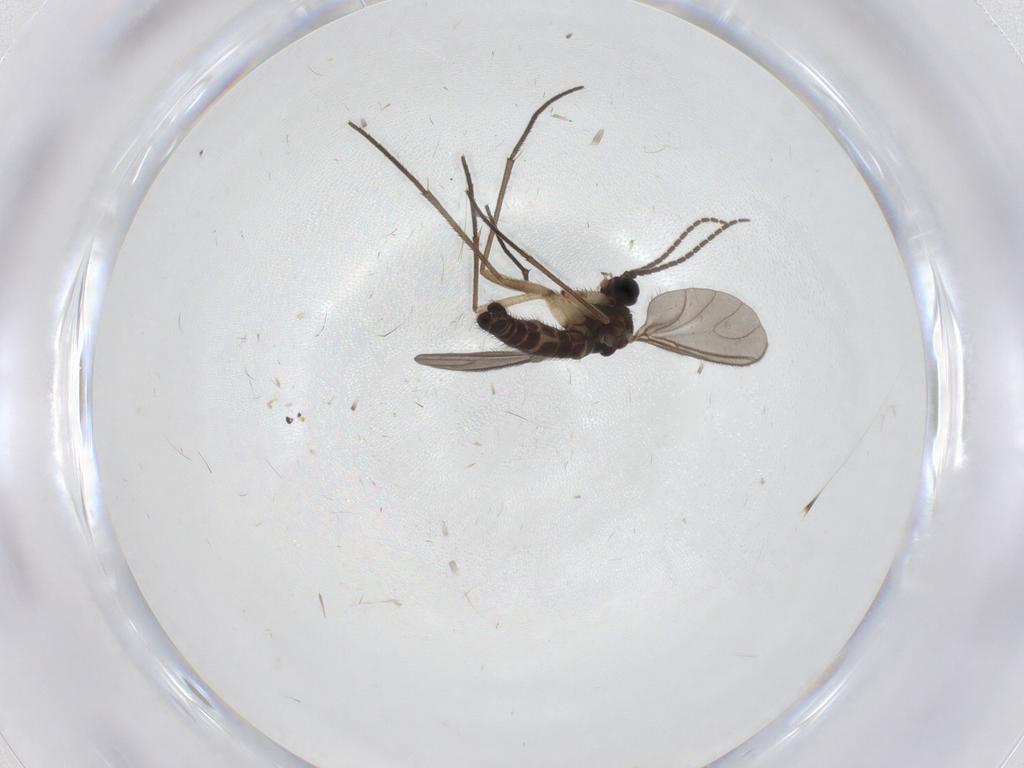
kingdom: Animalia
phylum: Arthropoda
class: Insecta
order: Diptera
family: Sciaridae
